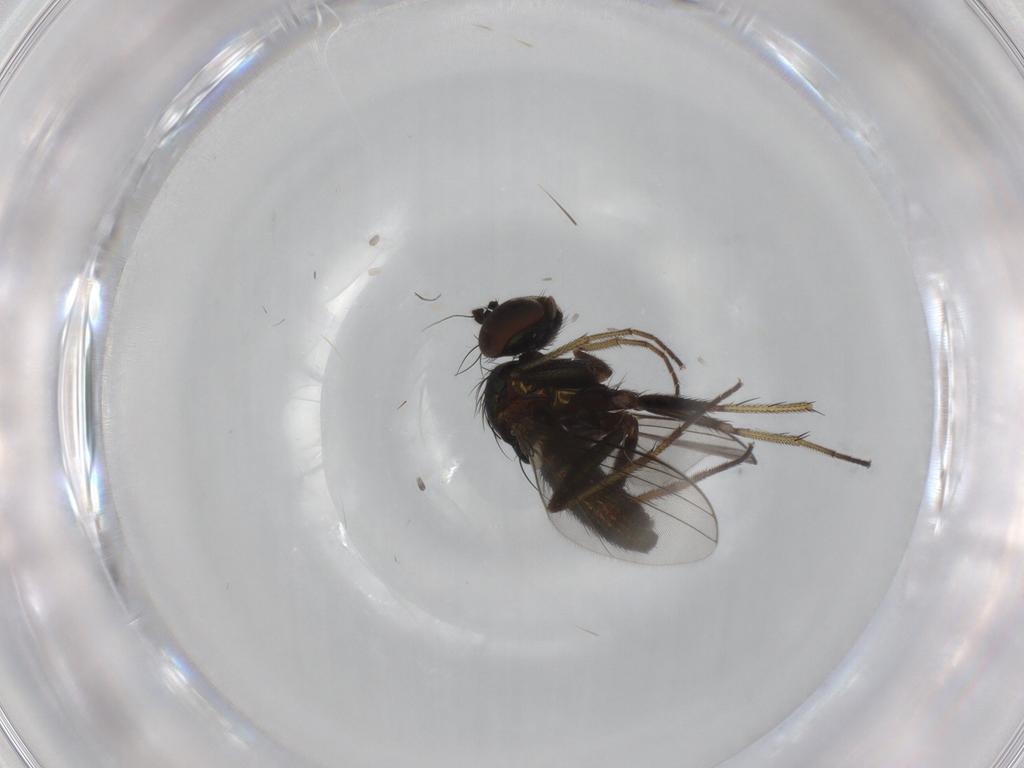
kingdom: Animalia
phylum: Arthropoda
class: Insecta
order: Diptera
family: Dolichopodidae
